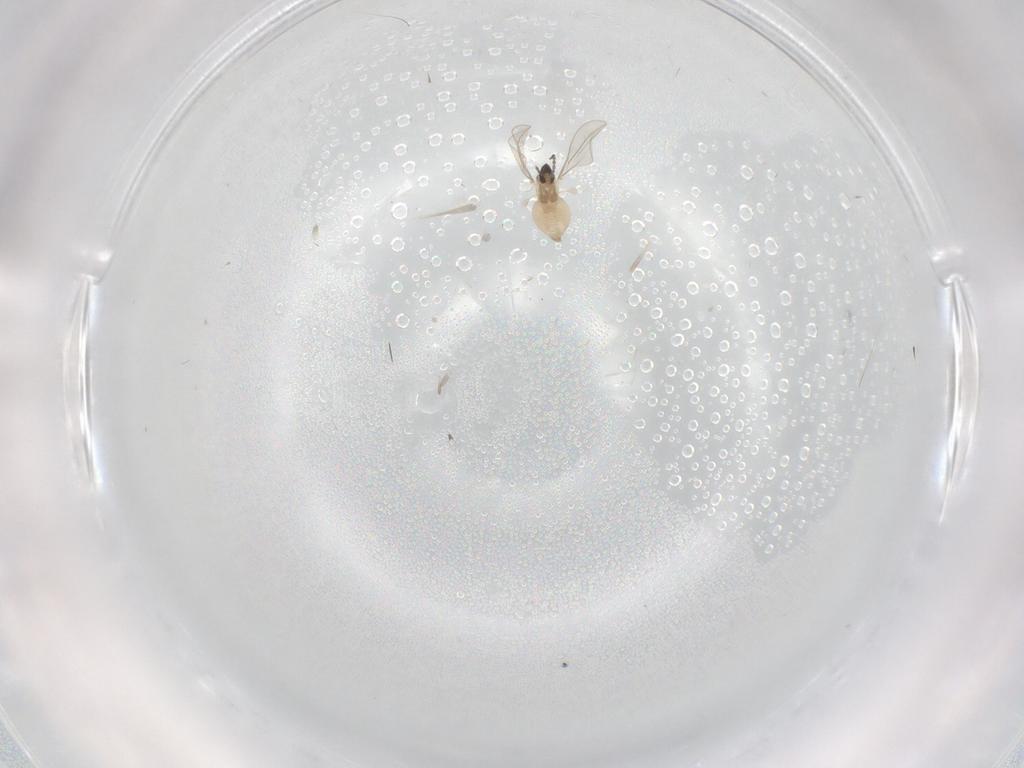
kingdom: Animalia
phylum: Arthropoda
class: Insecta
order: Diptera
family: Cecidomyiidae
